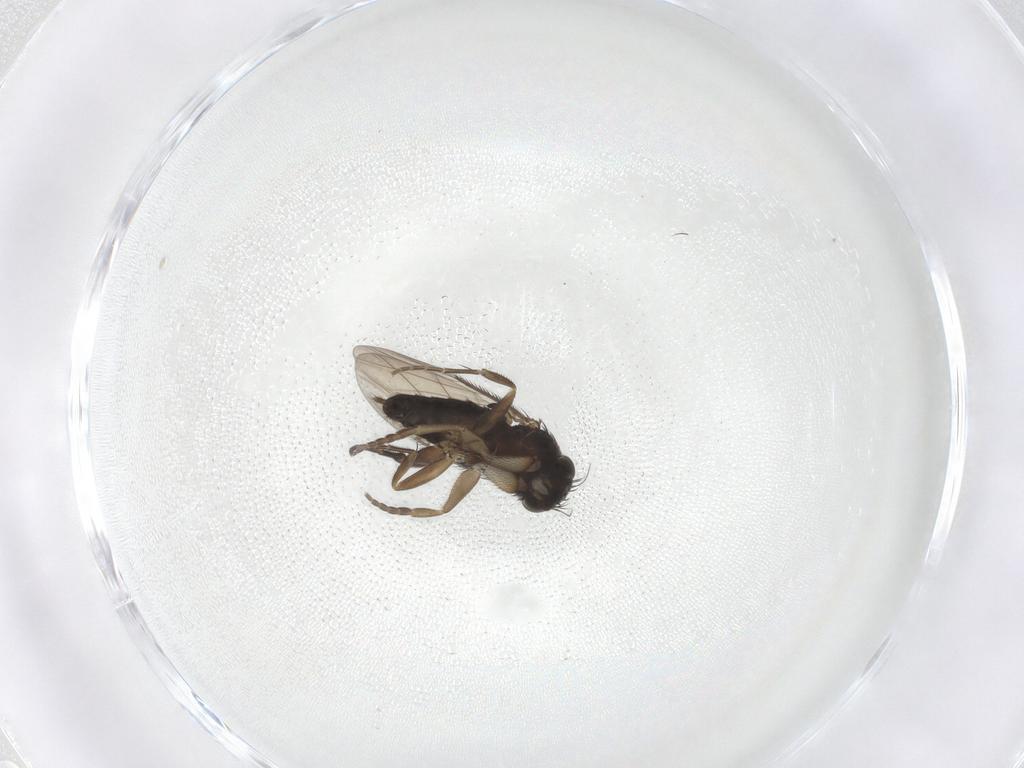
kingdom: Animalia
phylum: Arthropoda
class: Insecta
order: Diptera
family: Phoridae
